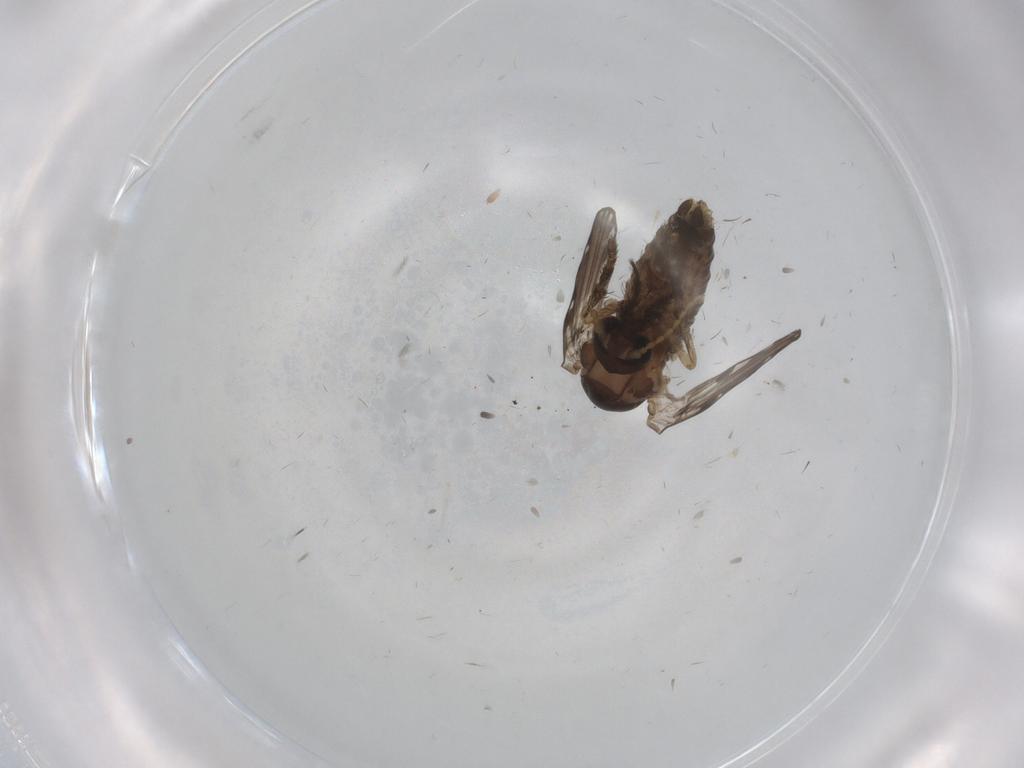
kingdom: Animalia
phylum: Arthropoda
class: Insecta
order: Diptera
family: Psychodidae
